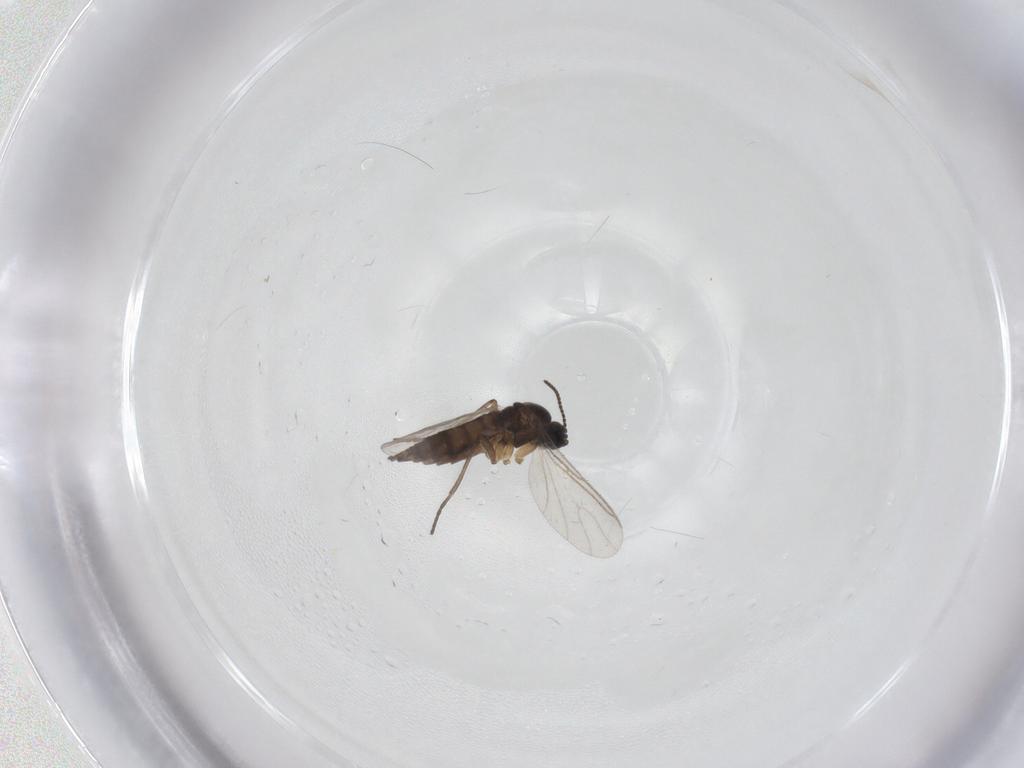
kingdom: Animalia
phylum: Arthropoda
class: Insecta
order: Diptera
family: Sciaridae
